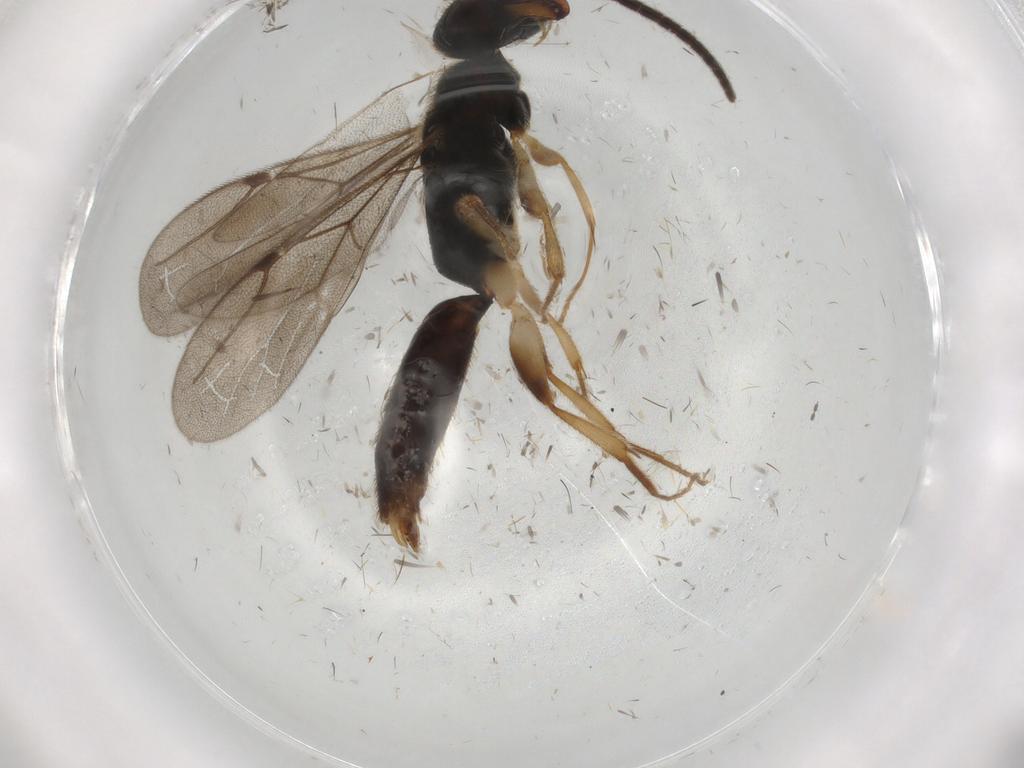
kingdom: Animalia
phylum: Arthropoda
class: Insecta
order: Hymenoptera
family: Bethylidae
